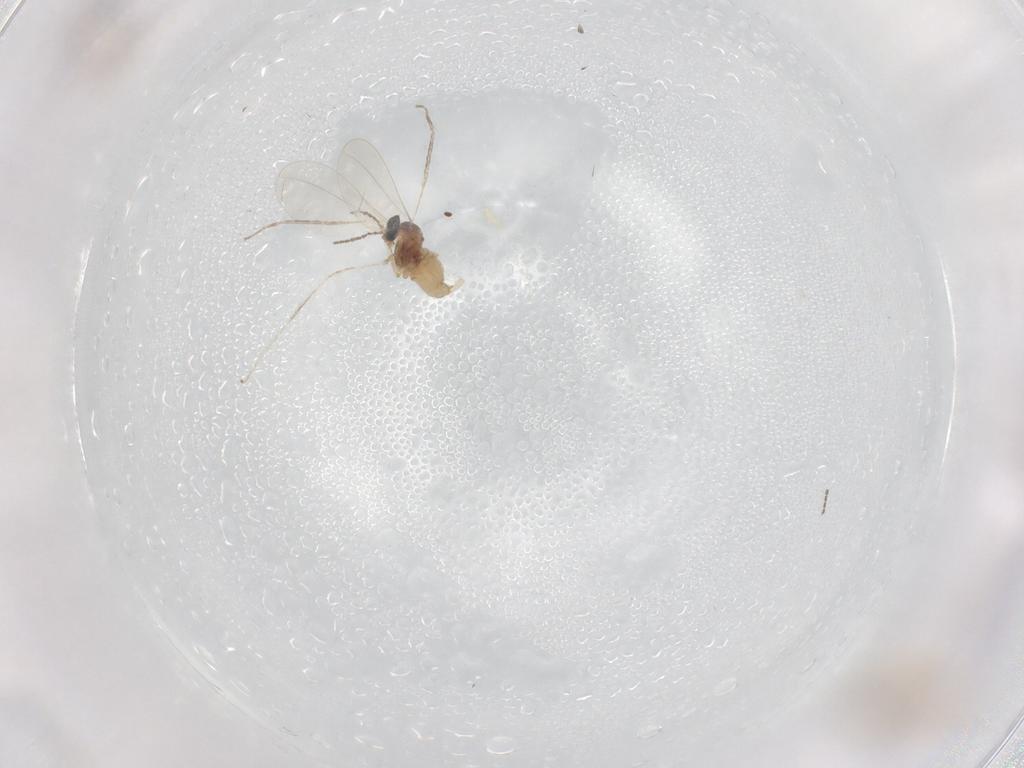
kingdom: Animalia
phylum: Arthropoda
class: Insecta
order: Diptera
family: Cecidomyiidae
